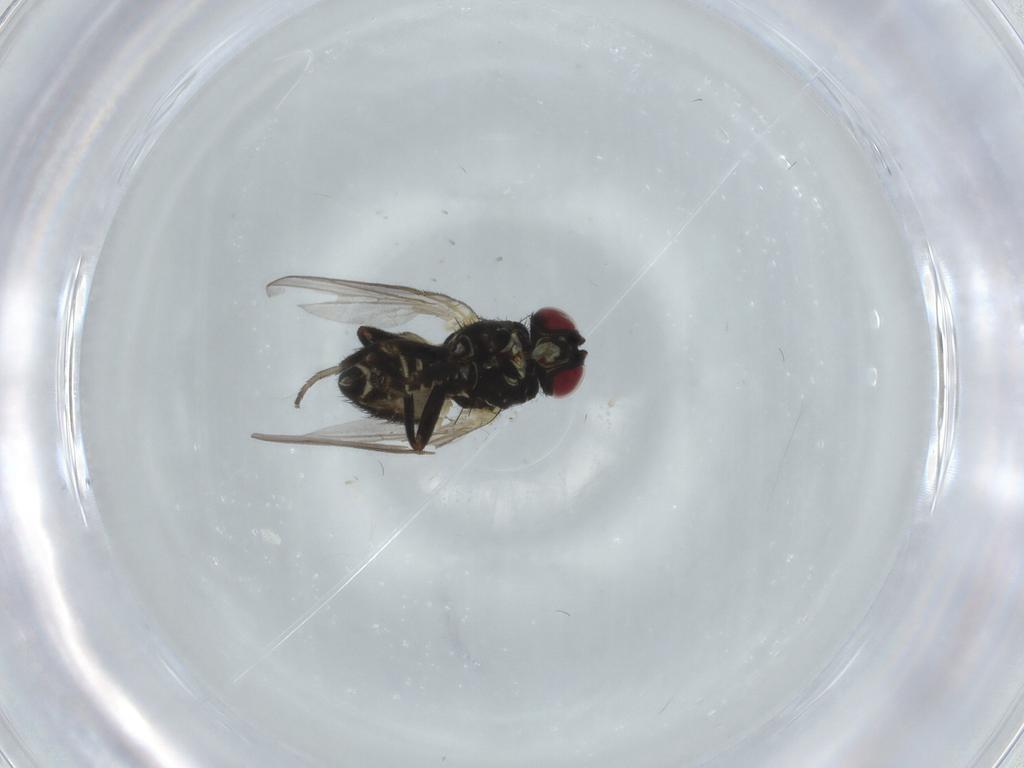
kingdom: Animalia
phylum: Arthropoda
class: Insecta
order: Diptera
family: Agromyzidae
